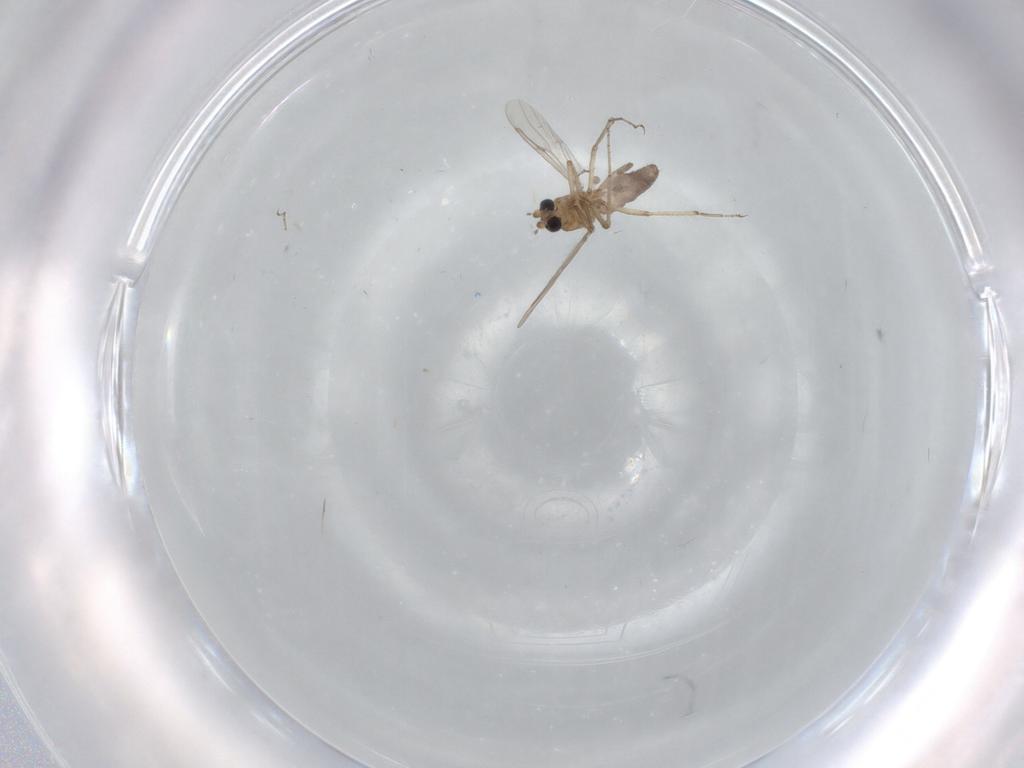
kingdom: Animalia
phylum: Arthropoda
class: Insecta
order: Diptera
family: Ceratopogonidae
